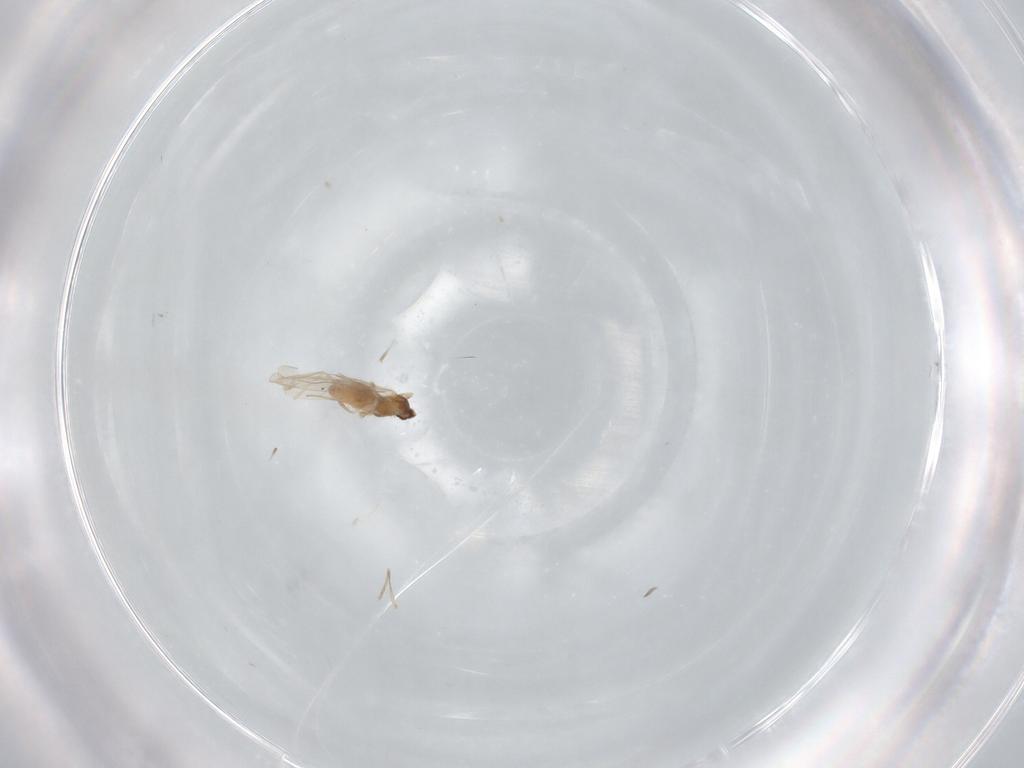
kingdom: Animalia
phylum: Arthropoda
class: Insecta
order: Diptera
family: Cecidomyiidae
